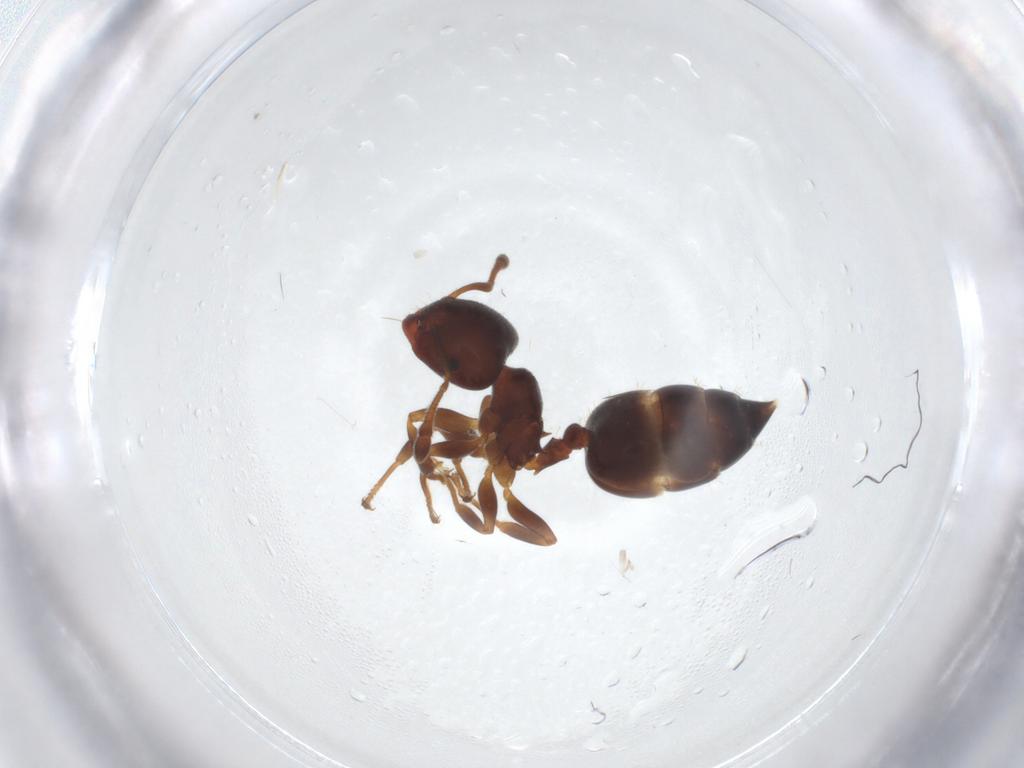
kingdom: Animalia
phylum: Arthropoda
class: Insecta
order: Hymenoptera
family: Formicidae
